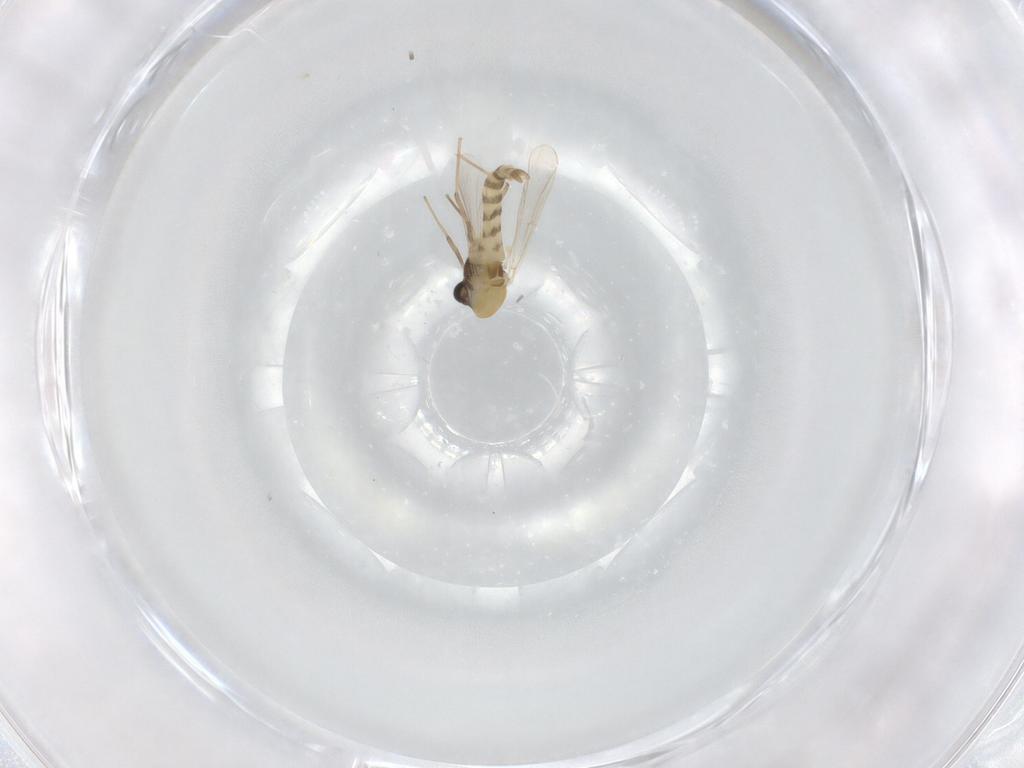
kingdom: Animalia
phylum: Arthropoda
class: Insecta
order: Diptera
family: Chironomidae
